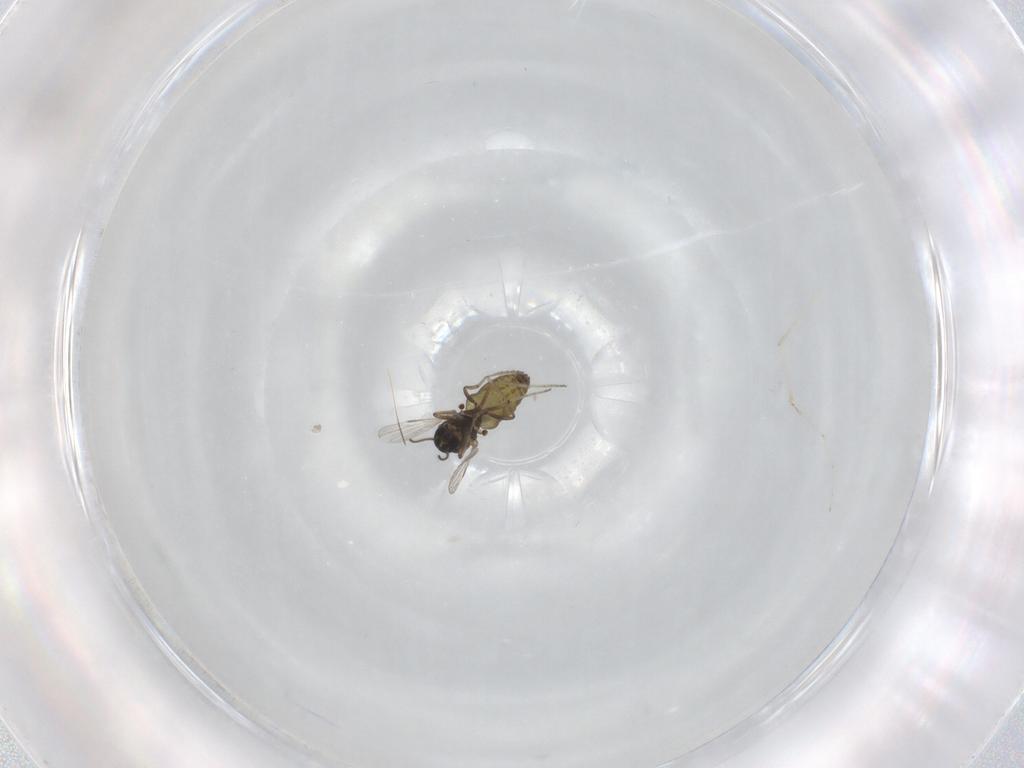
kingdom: Animalia
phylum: Arthropoda
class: Insecta
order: Diptera
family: Ceratopogonidae
